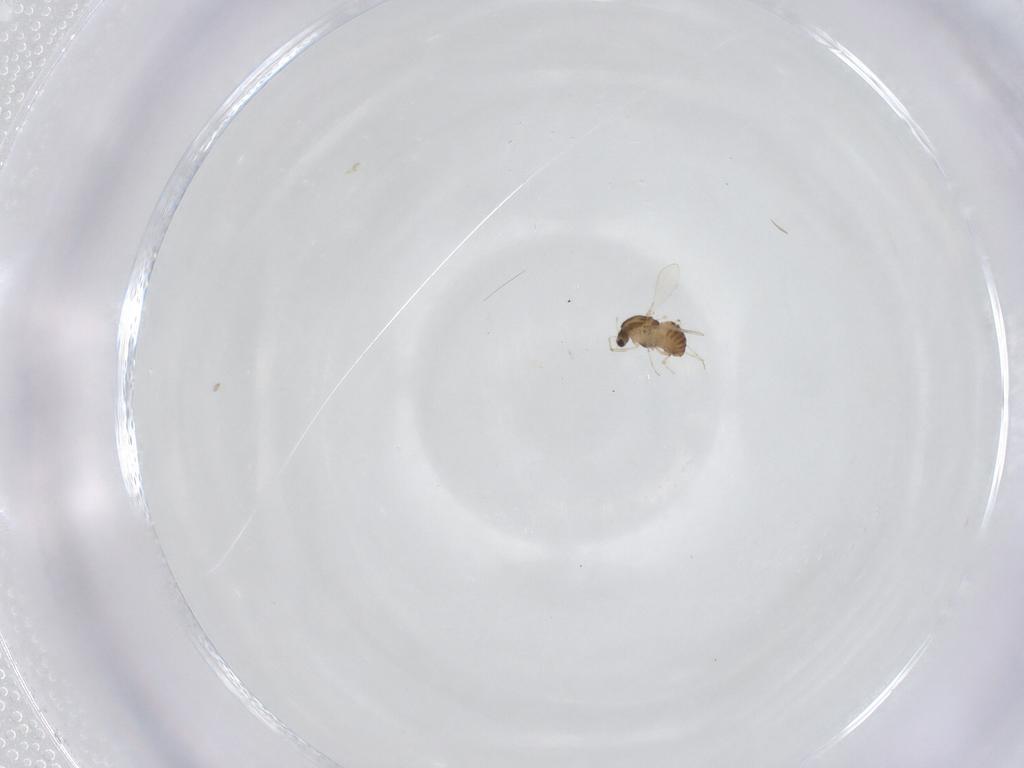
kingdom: Animalia
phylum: Arthropoda
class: Insecta
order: Diptera
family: Chironomidae
